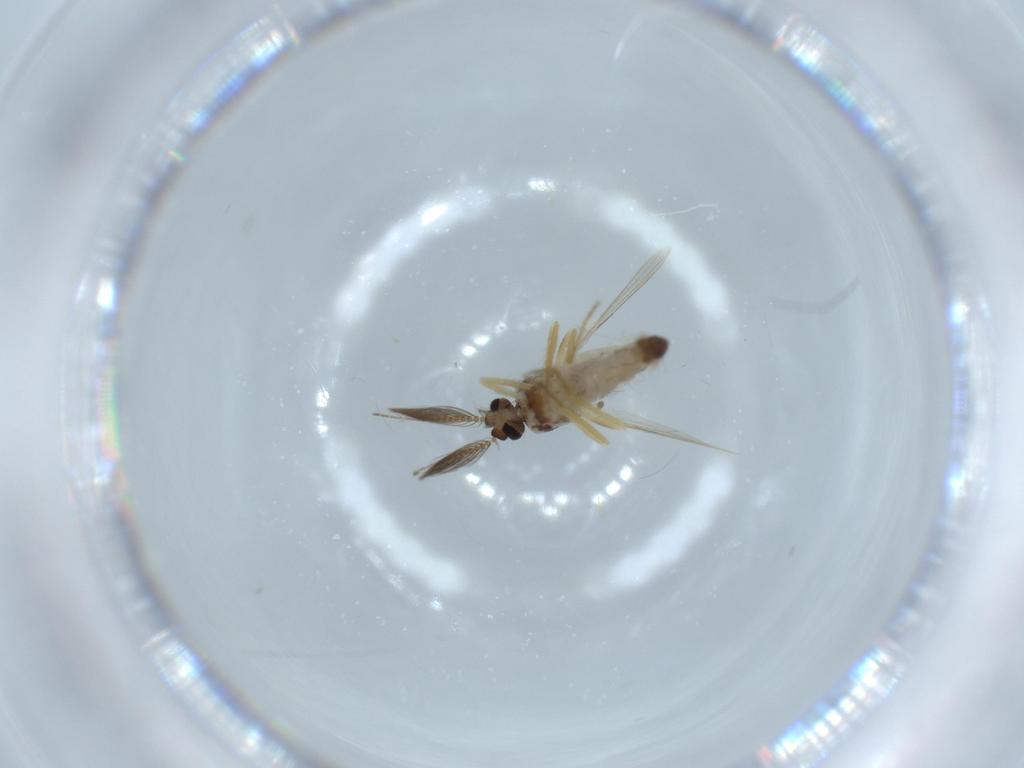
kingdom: Animalia
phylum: Arthropoda
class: Insecta
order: Diptera
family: Ceratopogonidae
